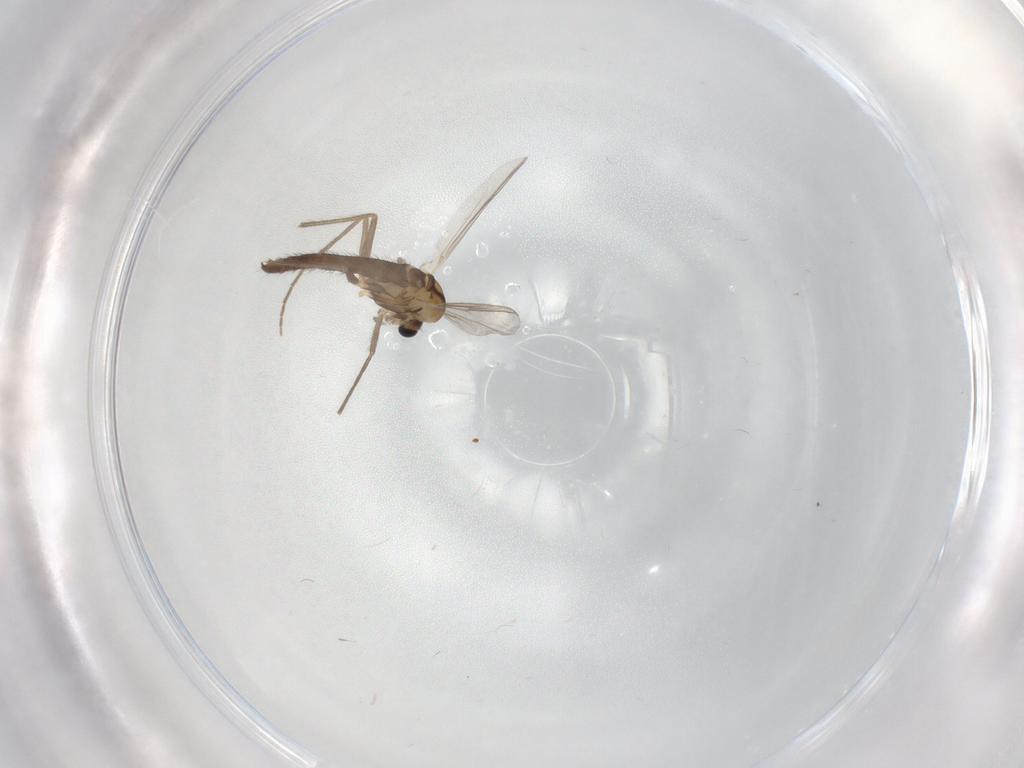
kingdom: Animalia
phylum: Arthropoda
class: Insecta
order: Diptera
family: Chironomidae
